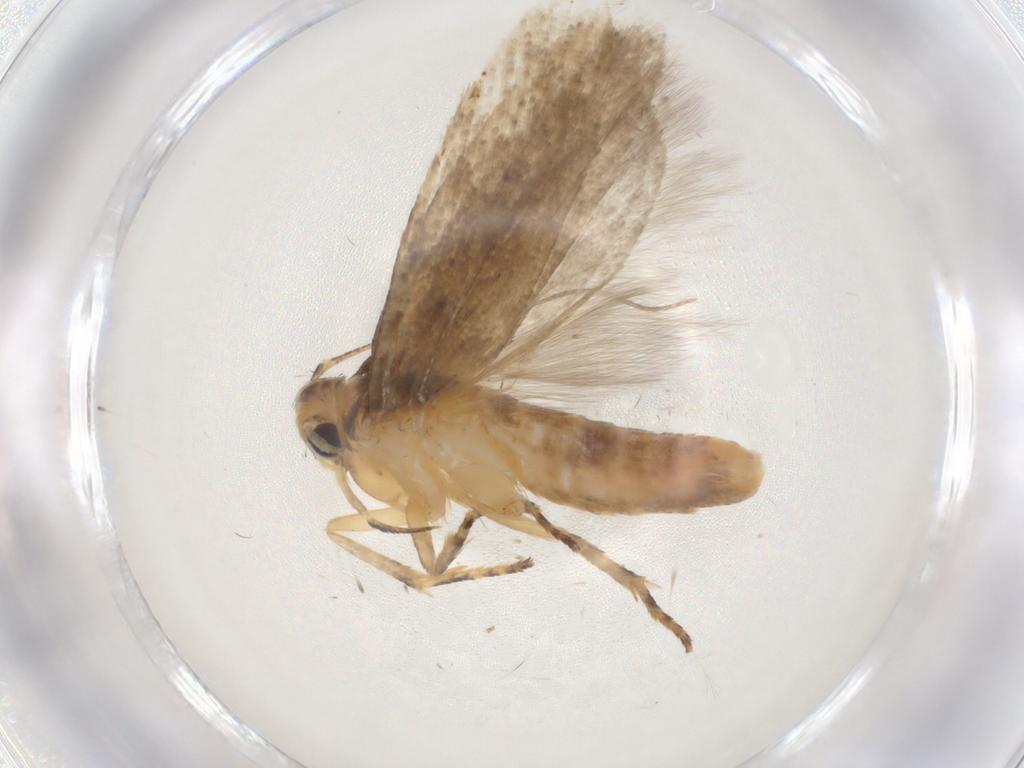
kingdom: Animalia
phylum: Arthropoda
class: Insecta
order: Lepidoptera
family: Gelechiidae
